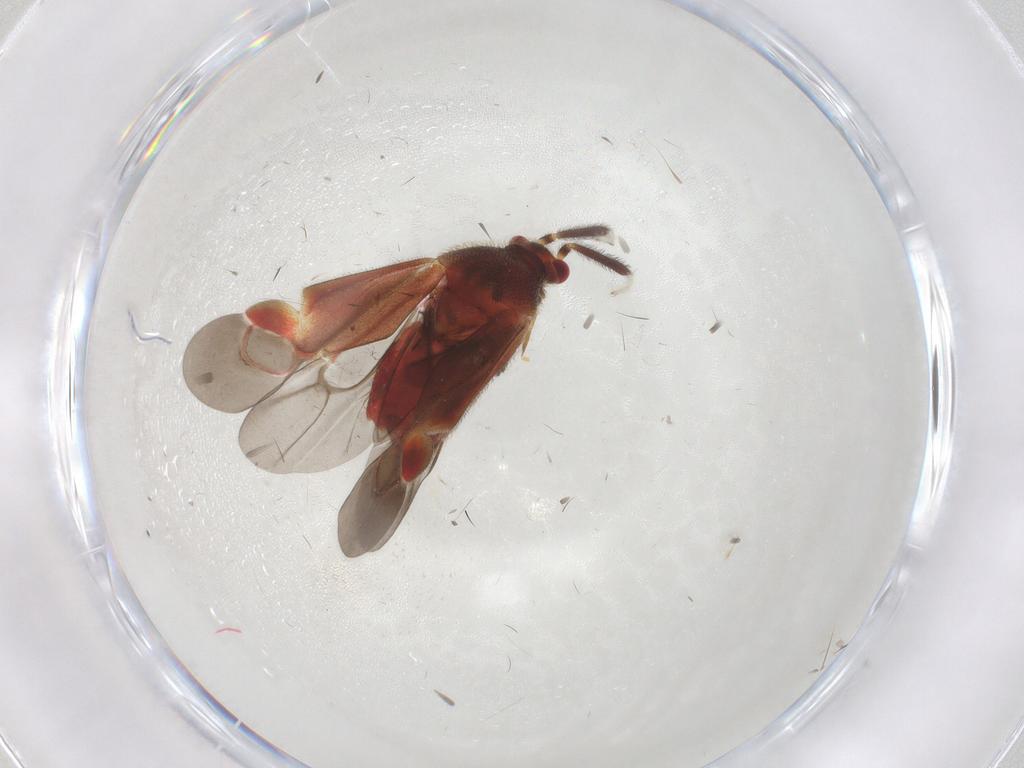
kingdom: Animalia
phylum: Arthropoda
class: Insecta
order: Hemiptera
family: Miridae
